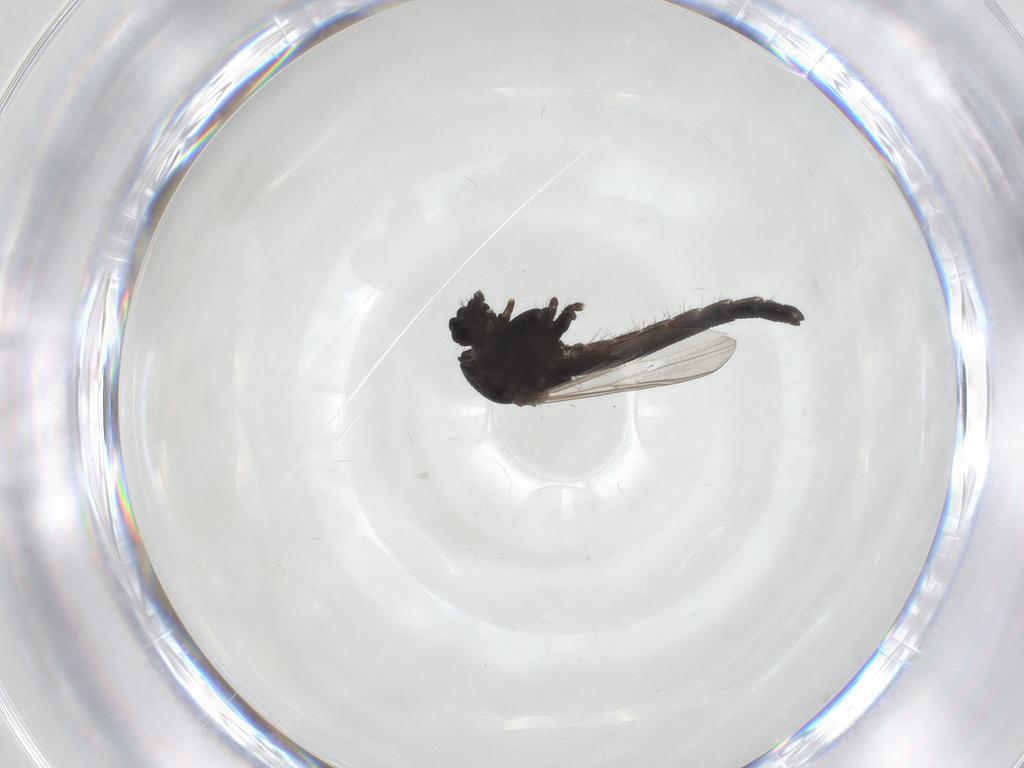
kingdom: Animalia
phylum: Arthropoda
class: Insecta
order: Diptera
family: Chironomidae
